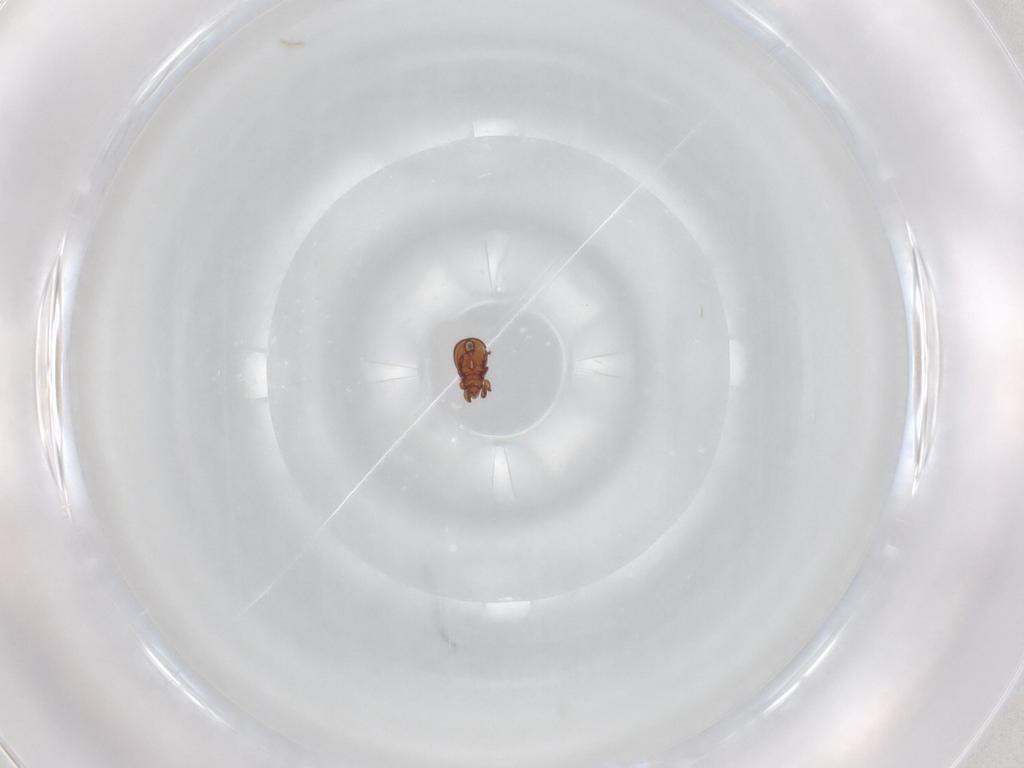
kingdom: Animalia
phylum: Arthropoda
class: Arachnida
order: Sarcoptiformes
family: Eremaeidae
